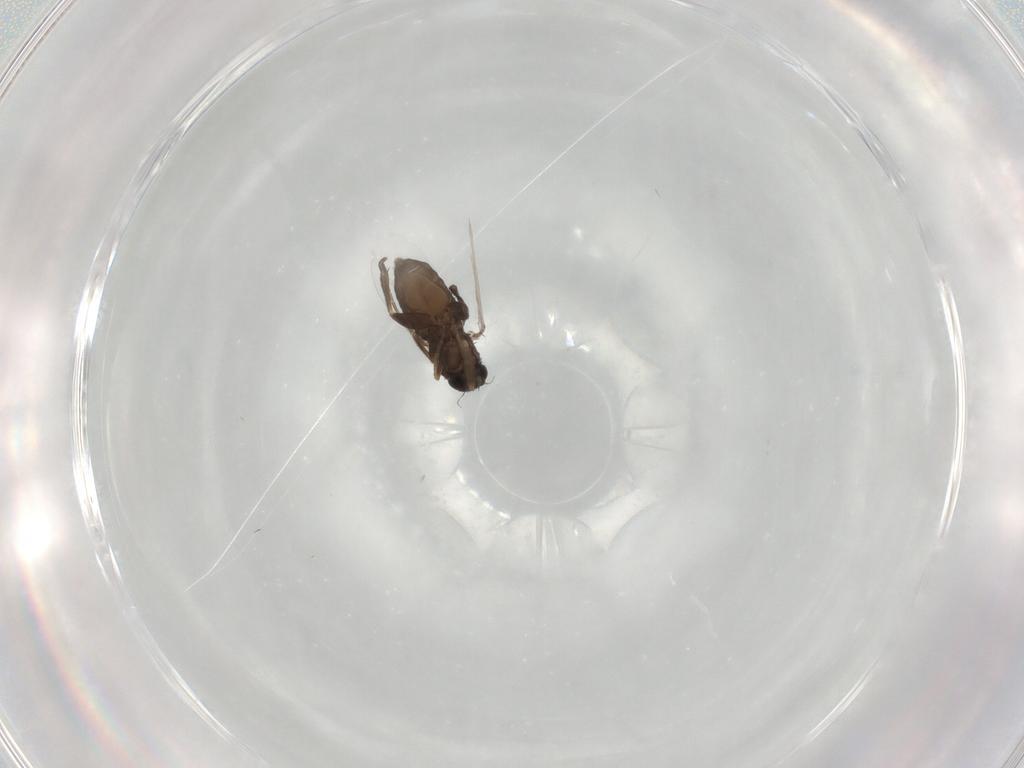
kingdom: Animalia
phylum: Arthropoda
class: Insecta
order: Diptera
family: Phoridae
